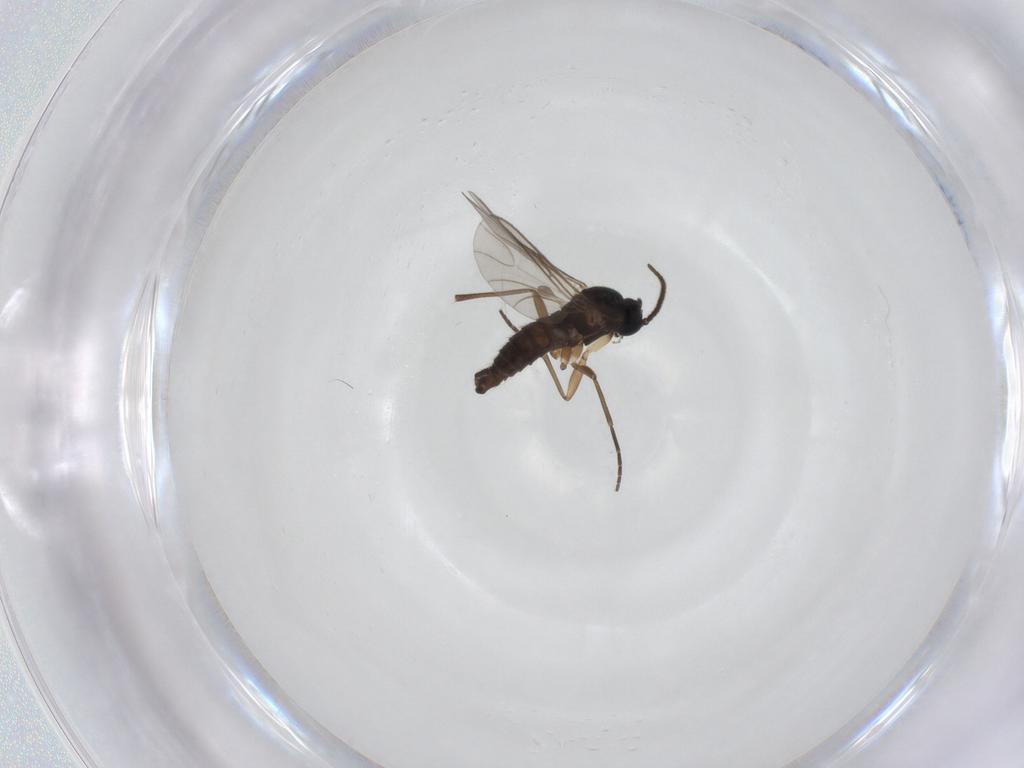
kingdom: Animalia
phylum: Arthropoda
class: Insecta
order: Diptera
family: Sciaridae
